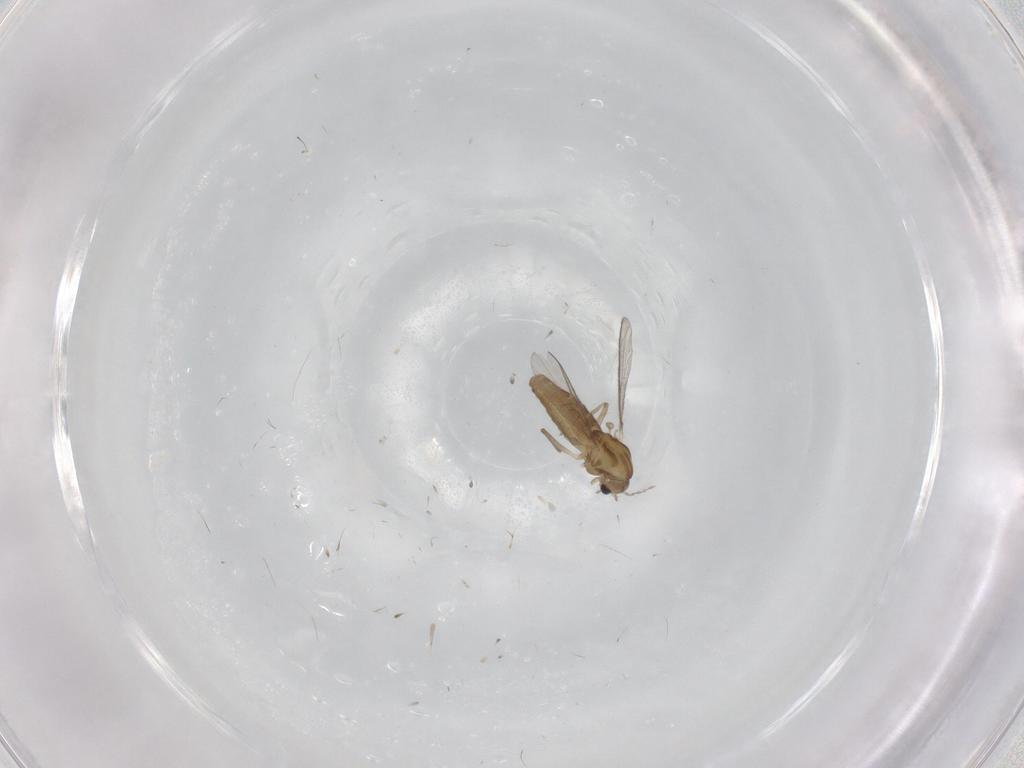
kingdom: Animalia
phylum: Arthropoda
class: Insecta
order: Diptera
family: Chironomidae
